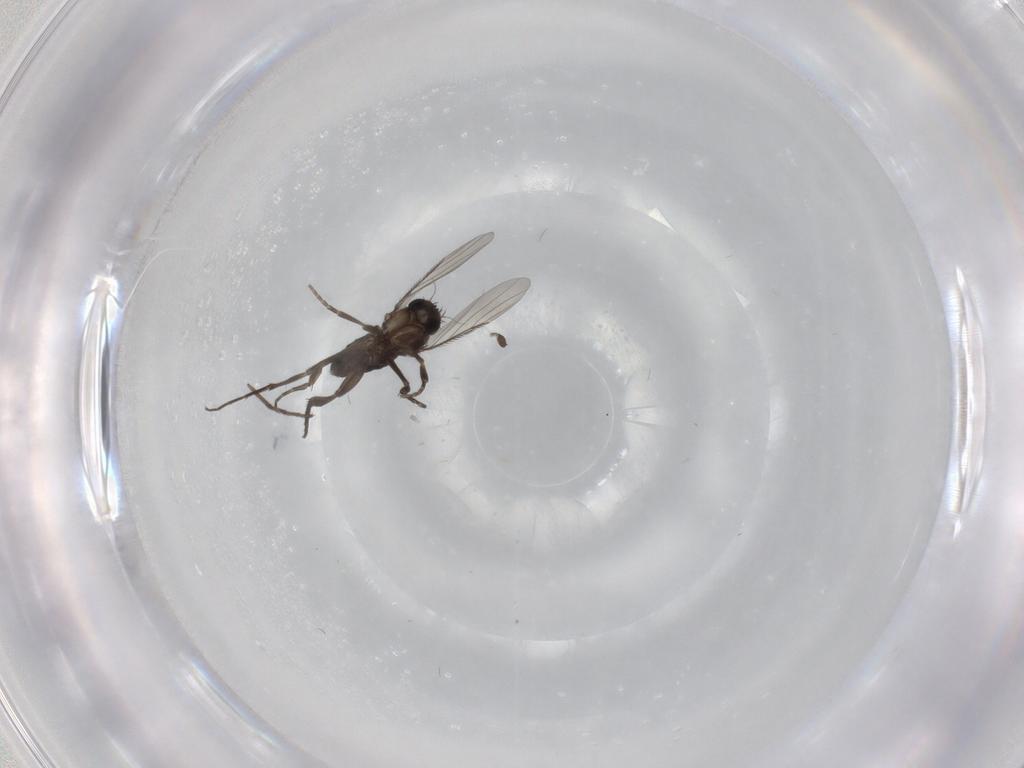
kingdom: Animalia
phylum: Arthropoda
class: Insecta
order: Diptera
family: Phoridae
